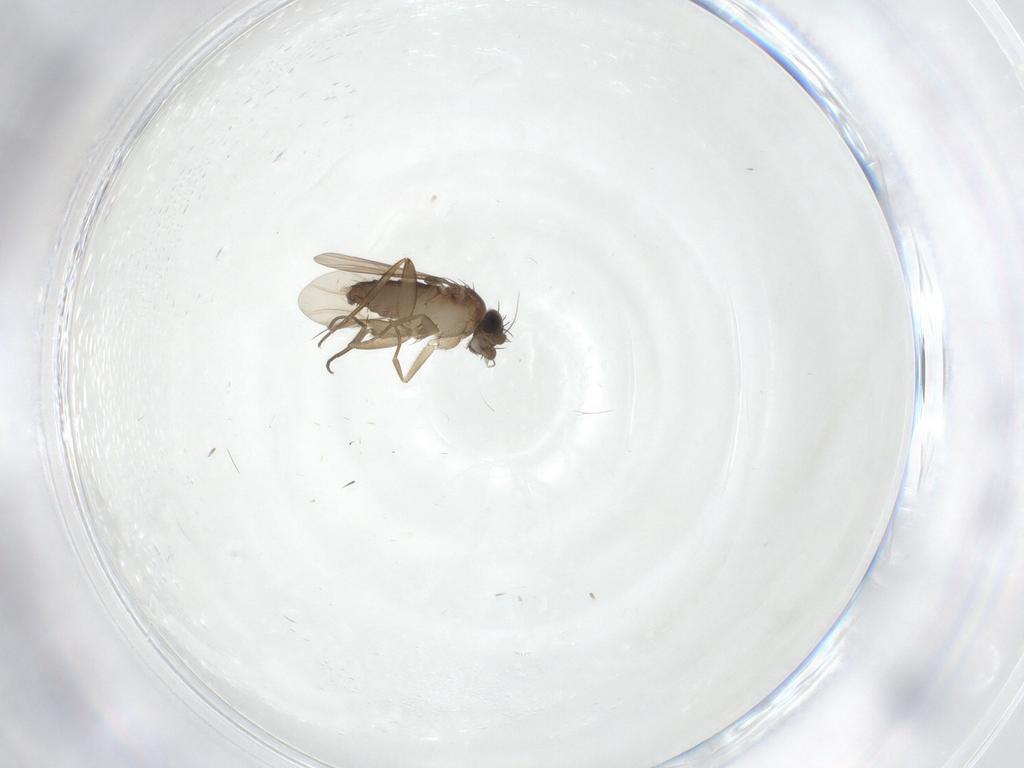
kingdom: Animalia
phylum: Arthropoda
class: Insecta
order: Diptera
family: Phoridae
